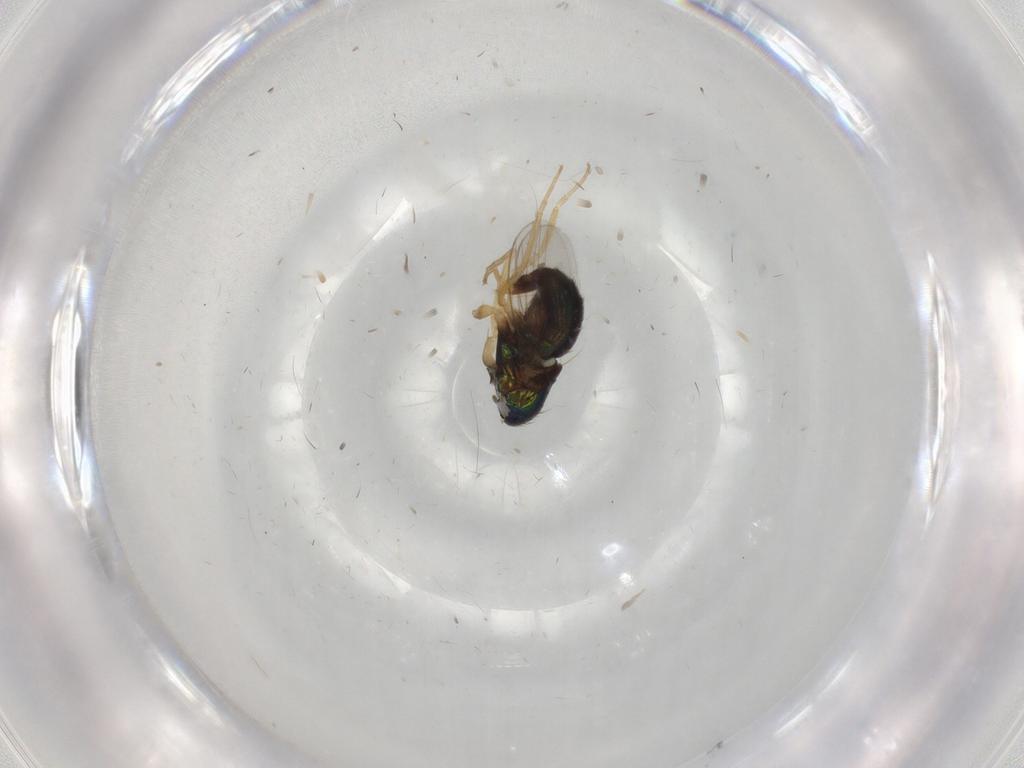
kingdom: Animalia
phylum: Arthropoda
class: Insecta
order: Diptera
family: Dolichopodidae
